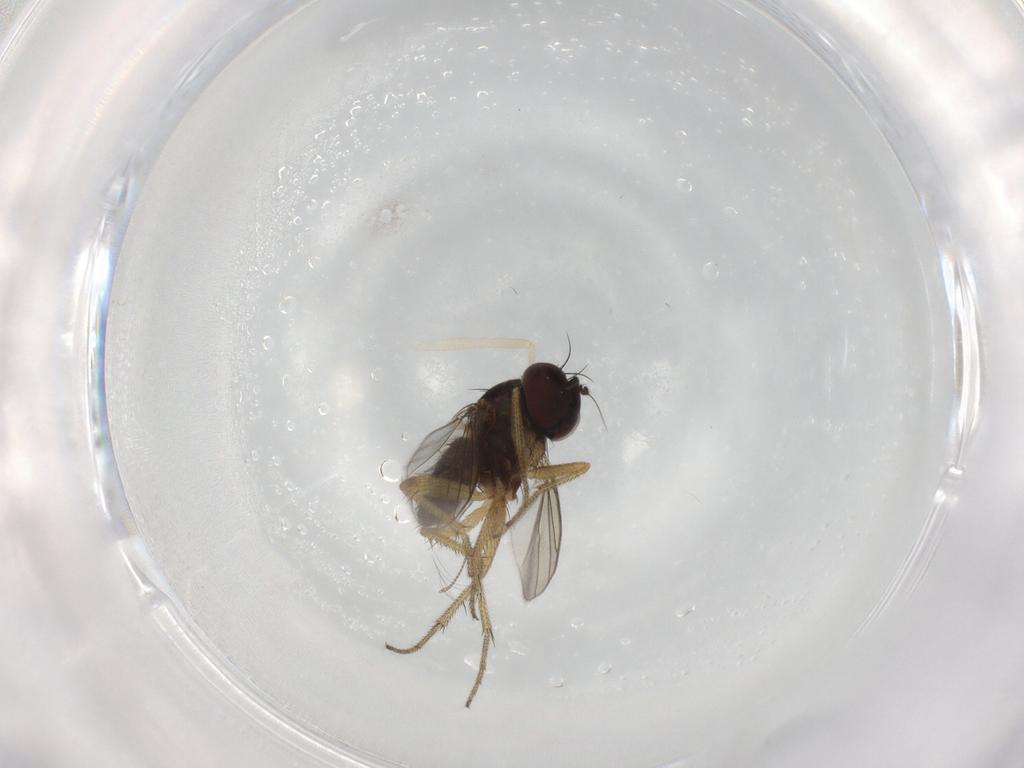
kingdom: Animalia
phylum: Arthropoda
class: Insecta
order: Diptera
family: Chironomidae
